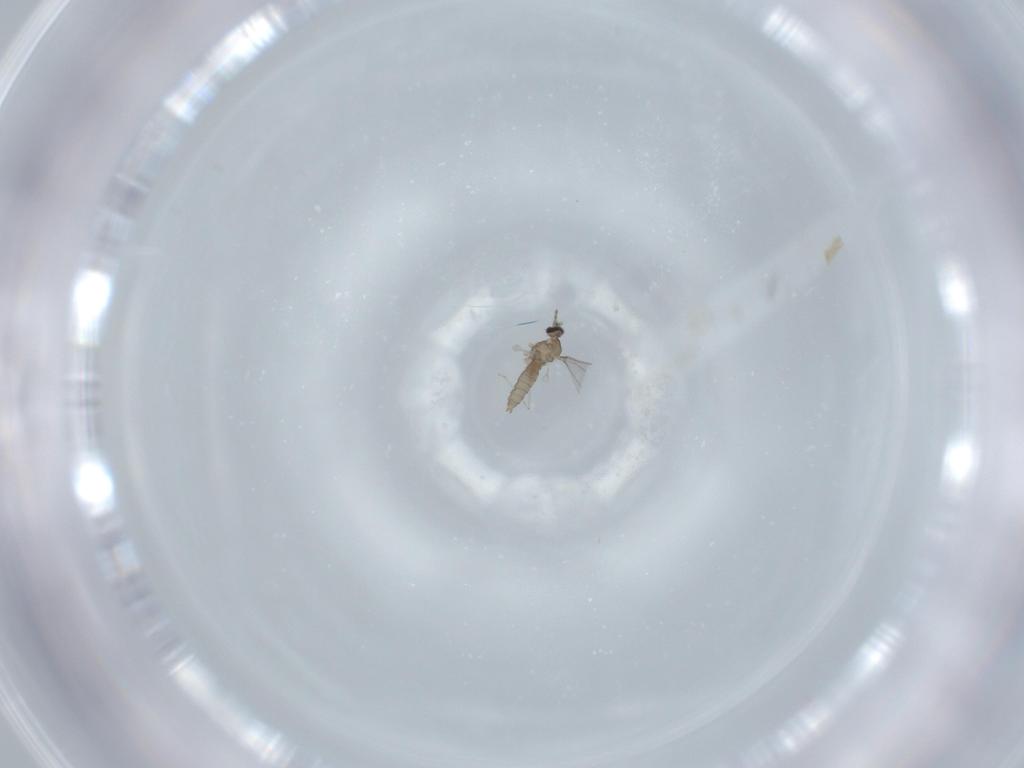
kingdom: Animalia
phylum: Arthropoda
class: Insecta
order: Diptera
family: Cecidomyiidae
